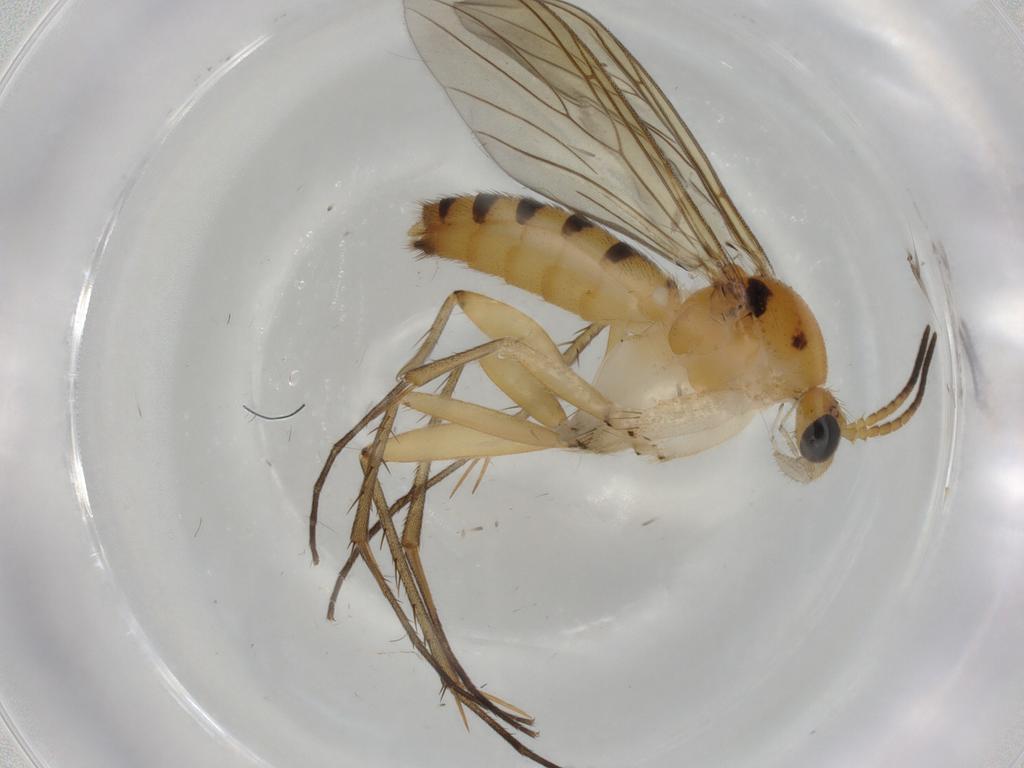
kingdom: Animalia
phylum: Arthropoda
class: Insecta
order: Diptera
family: Mycetophilidae
